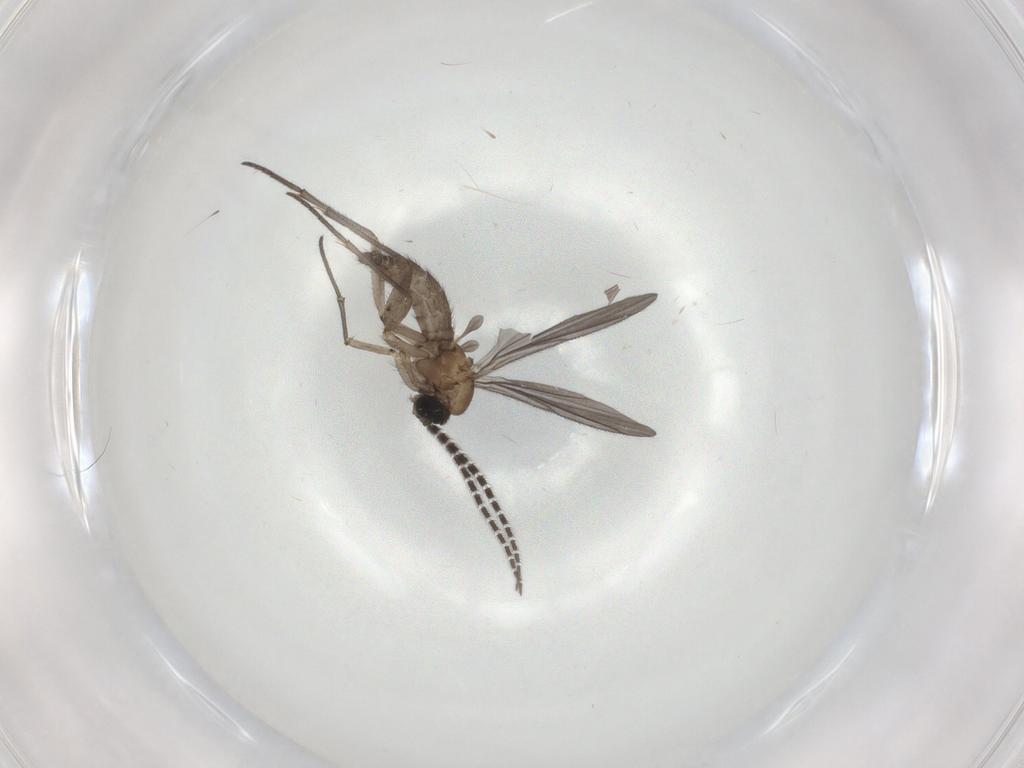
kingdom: Animalia
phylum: Arthropoda
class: Insecta
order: Diptera
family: Sciaridae
